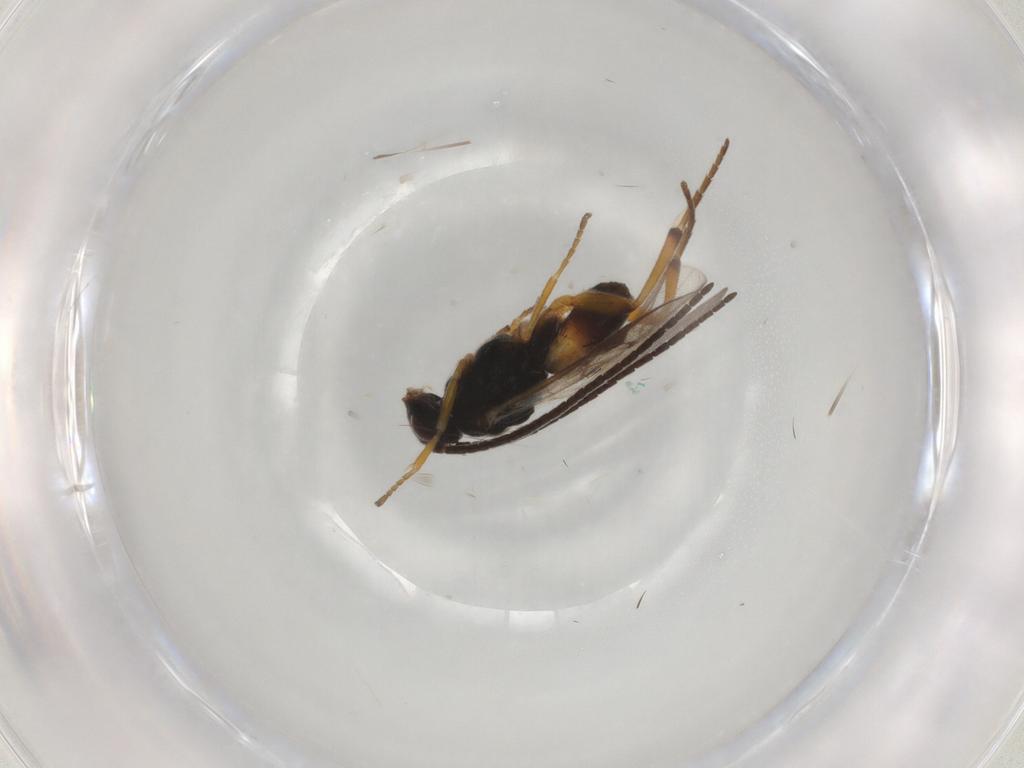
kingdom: Animalia
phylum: Arthropoda
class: Insecta
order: Hymenoptera
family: Braconidae
